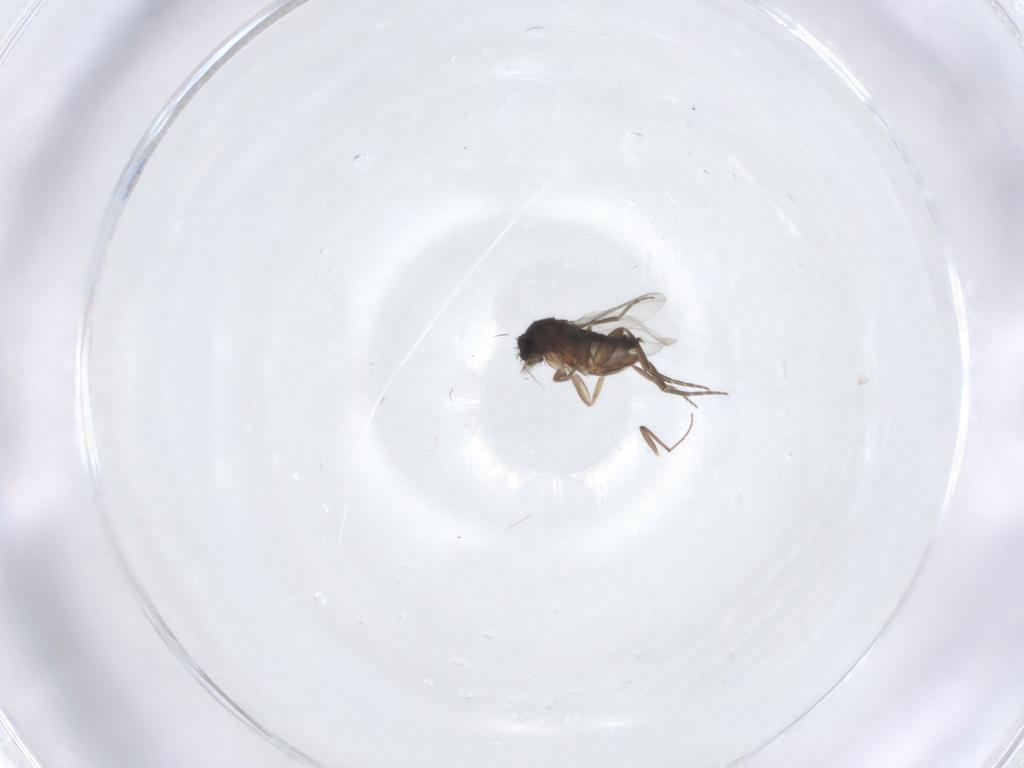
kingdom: Animalia
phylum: Arthropoda
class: Insecta
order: Diptera
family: Phoridae
